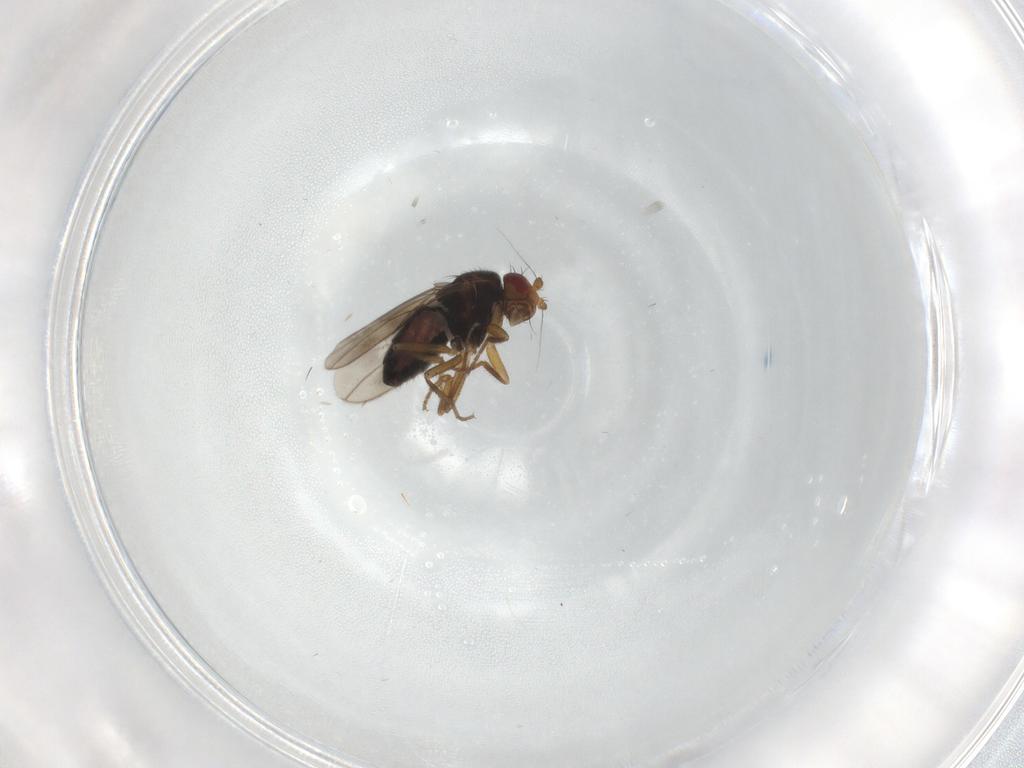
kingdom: Animalia
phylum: Arthropoda
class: Insecta
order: Diptera
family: Sphaeroceridae
